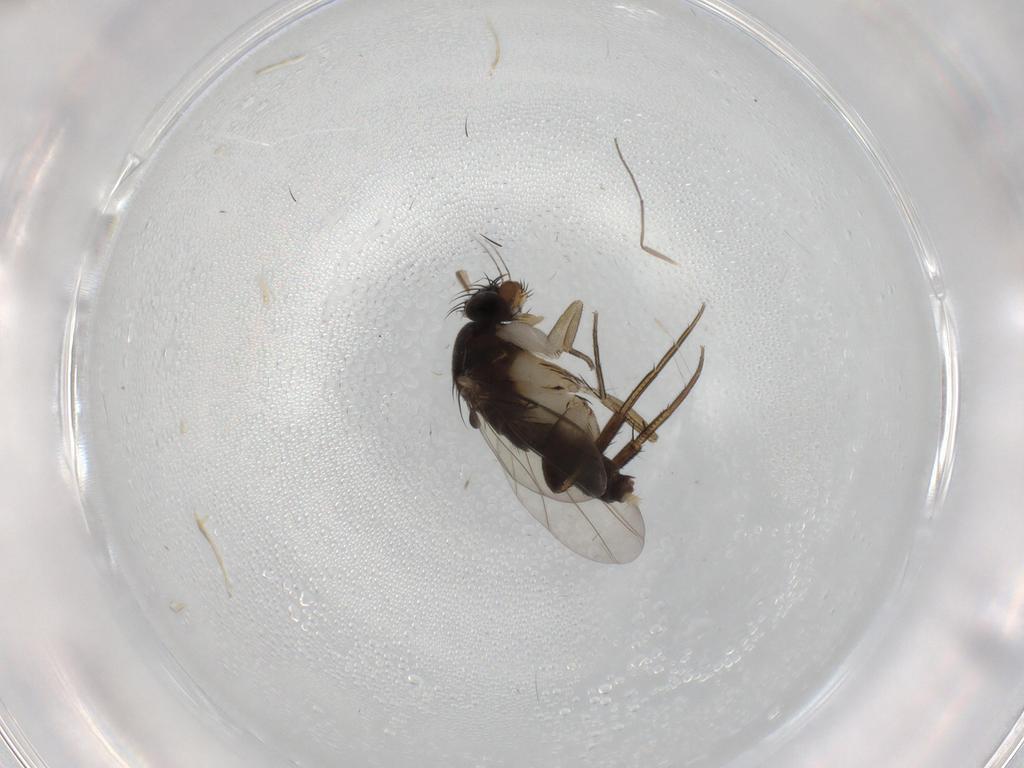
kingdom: Animalia
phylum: Arthropoda
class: Insecta
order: Diptera
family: Phoridae
